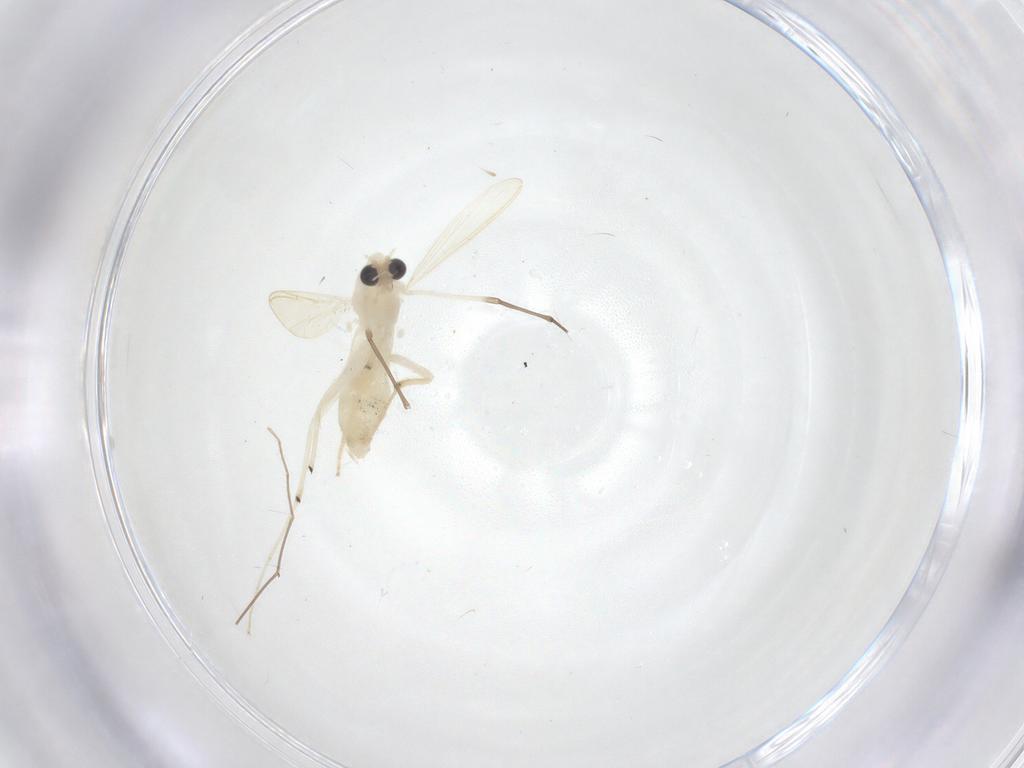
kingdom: Animalia
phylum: Arthropoda
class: Insecta
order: Diptera
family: Chironomidae
